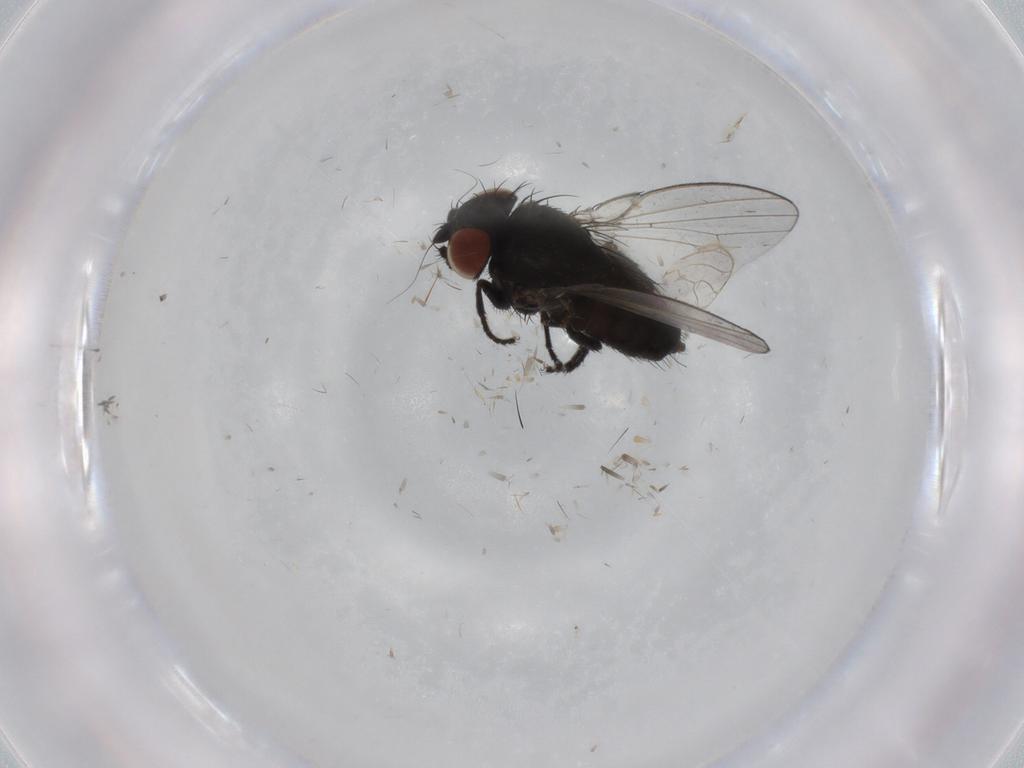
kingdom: Animalia
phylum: Arthropoda
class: Insecta
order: Diptera
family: Milichiidae
